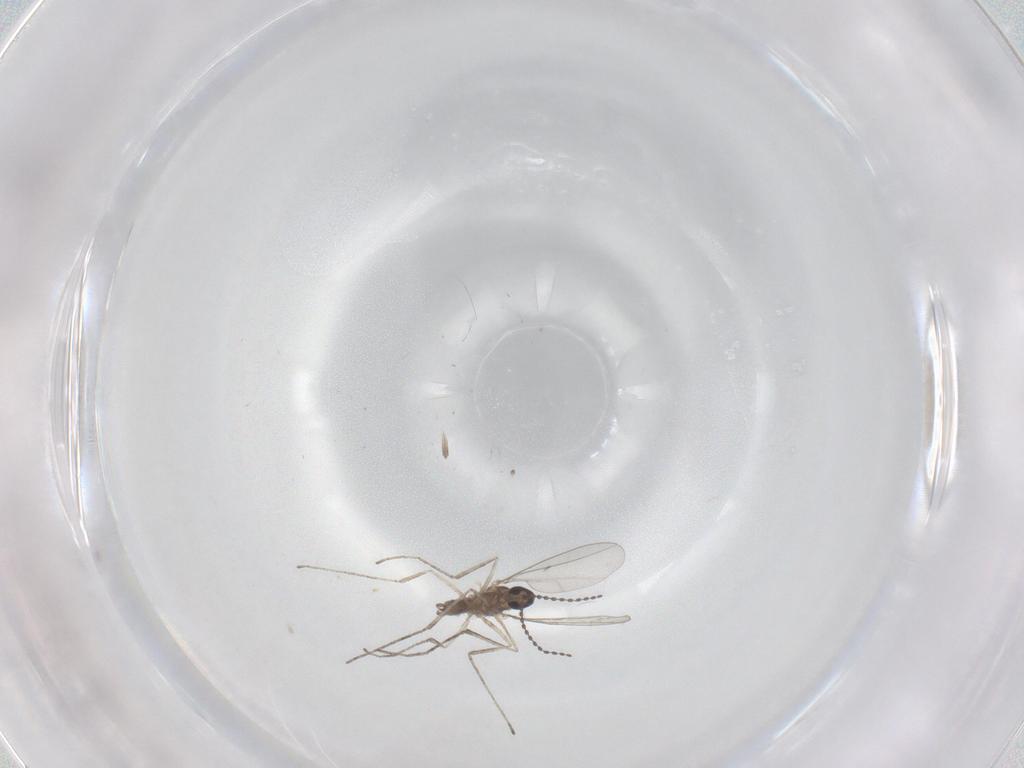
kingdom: Animalia
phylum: Arthropoda
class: Insecta
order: Diptera
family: Cecidomyiidae
